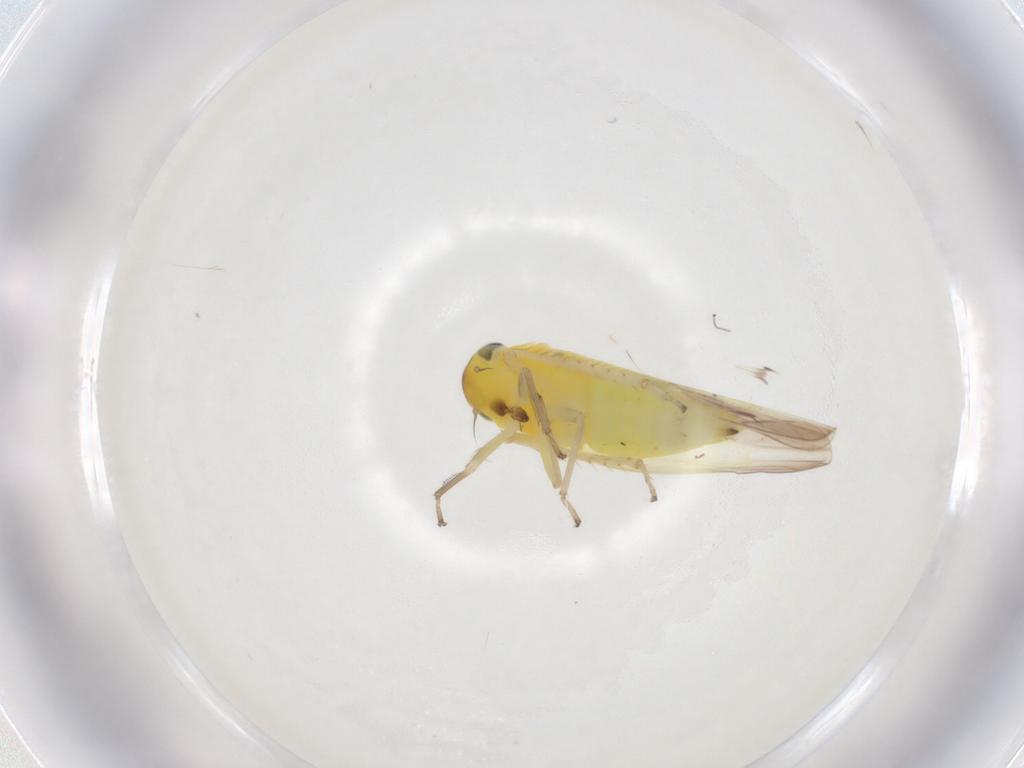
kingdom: Animalia
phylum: Arthropoda
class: Insecta
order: Hemiptera
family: Cicadellidae
